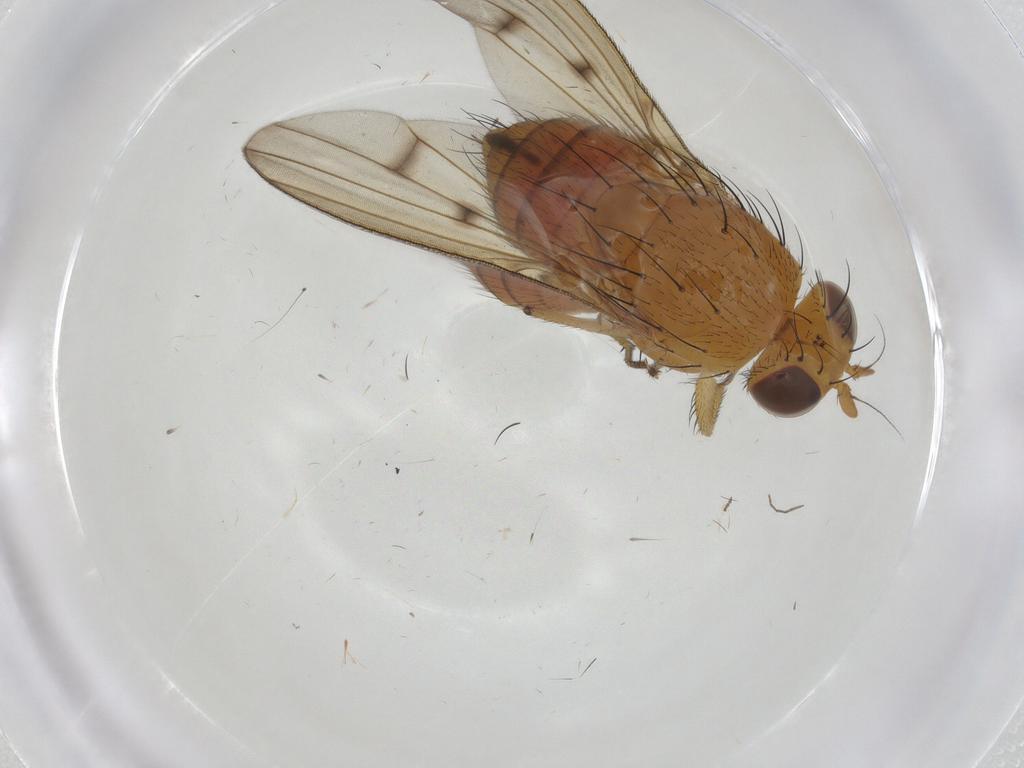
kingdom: Animalia
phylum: Arthropoda
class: Insecta
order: Diptera
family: Cecidomyiidae
